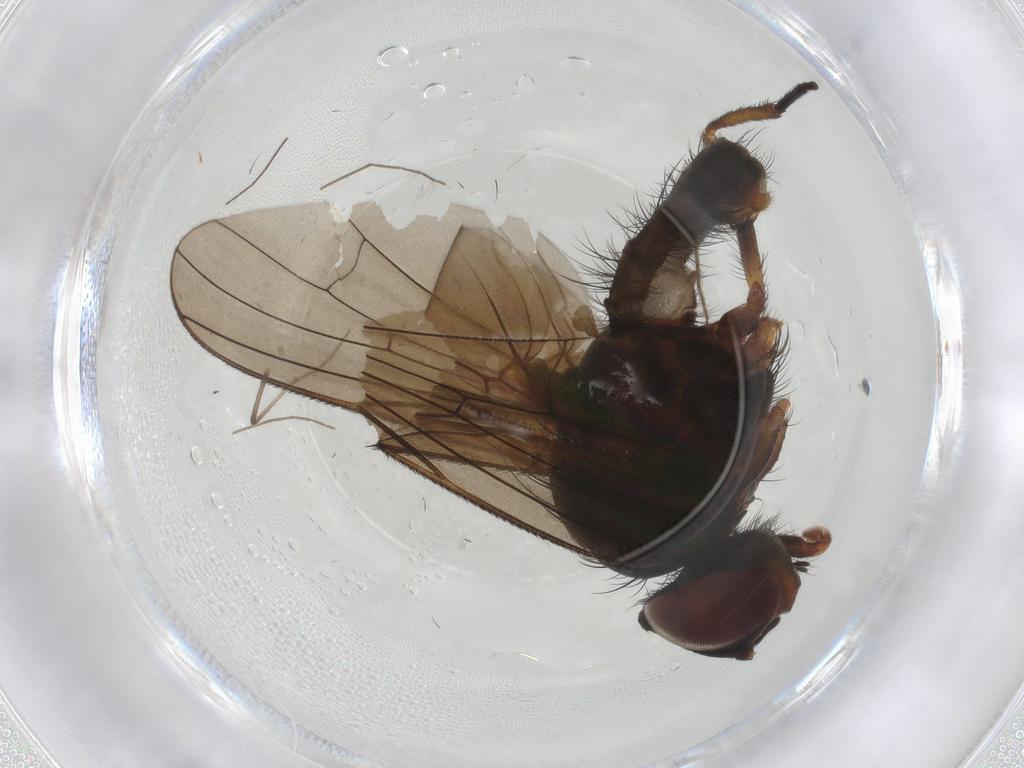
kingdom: Animalia
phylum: Arthropoda
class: Insecta
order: Diptera
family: Anthomyiidae
